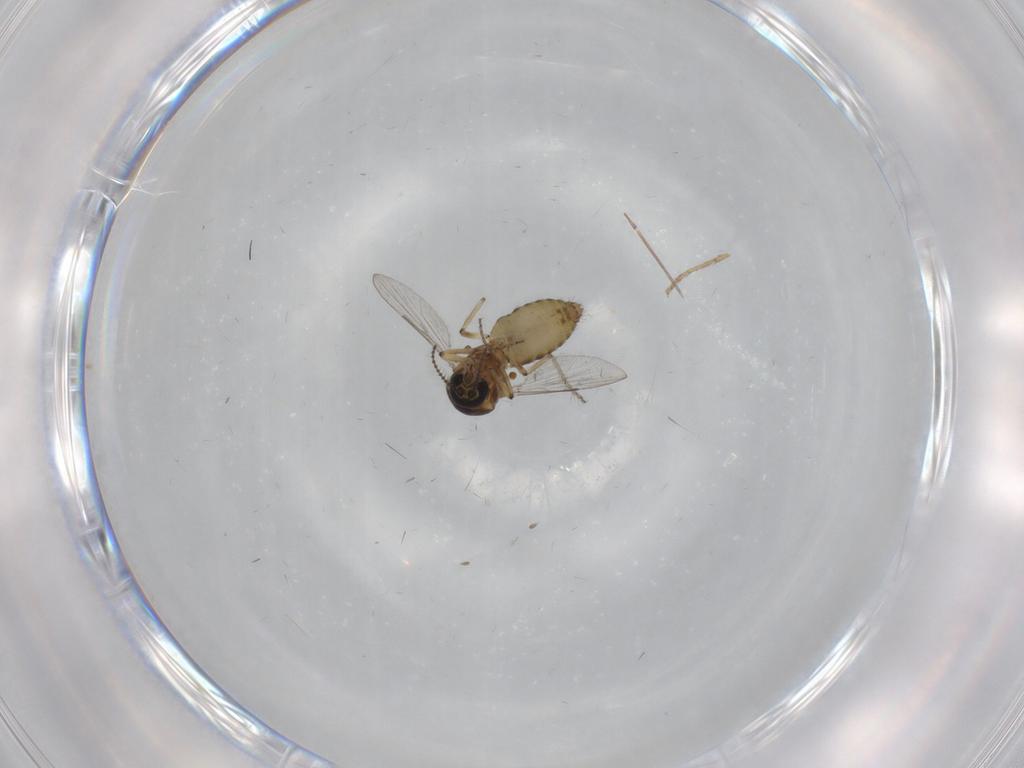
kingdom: Animalia
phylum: Arthropoda
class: Insecta
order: Diptera
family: Ceratopogonidae
